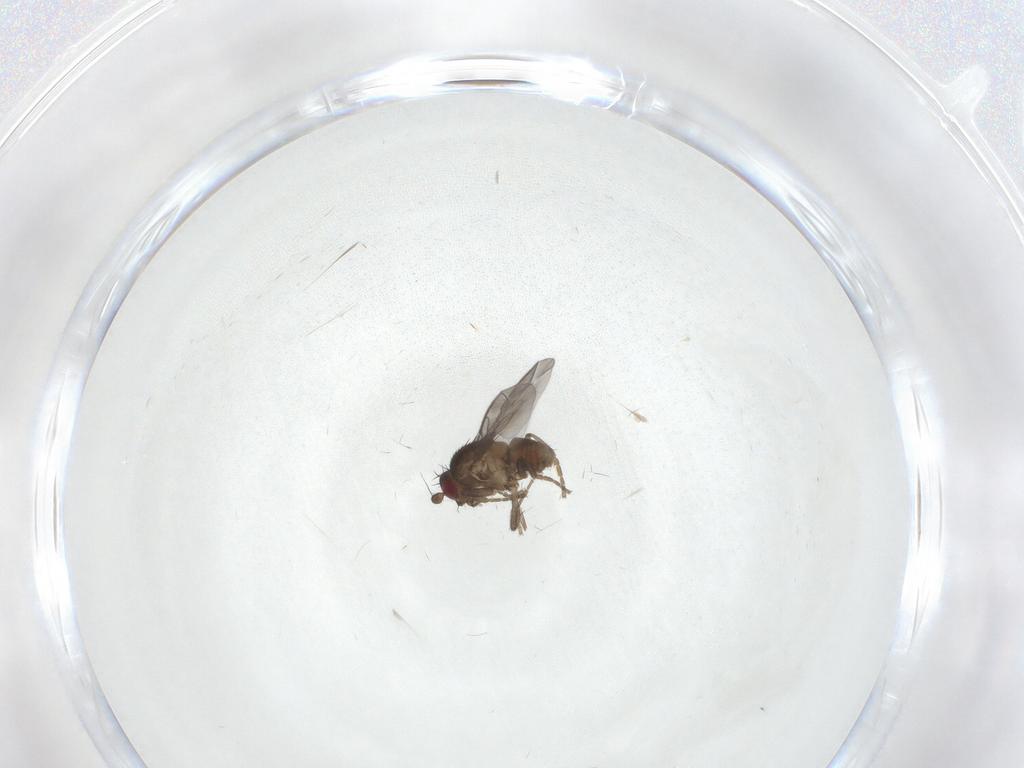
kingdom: Animalia
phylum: Arthropoda
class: Insecta
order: Diptera
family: Chironomidae
